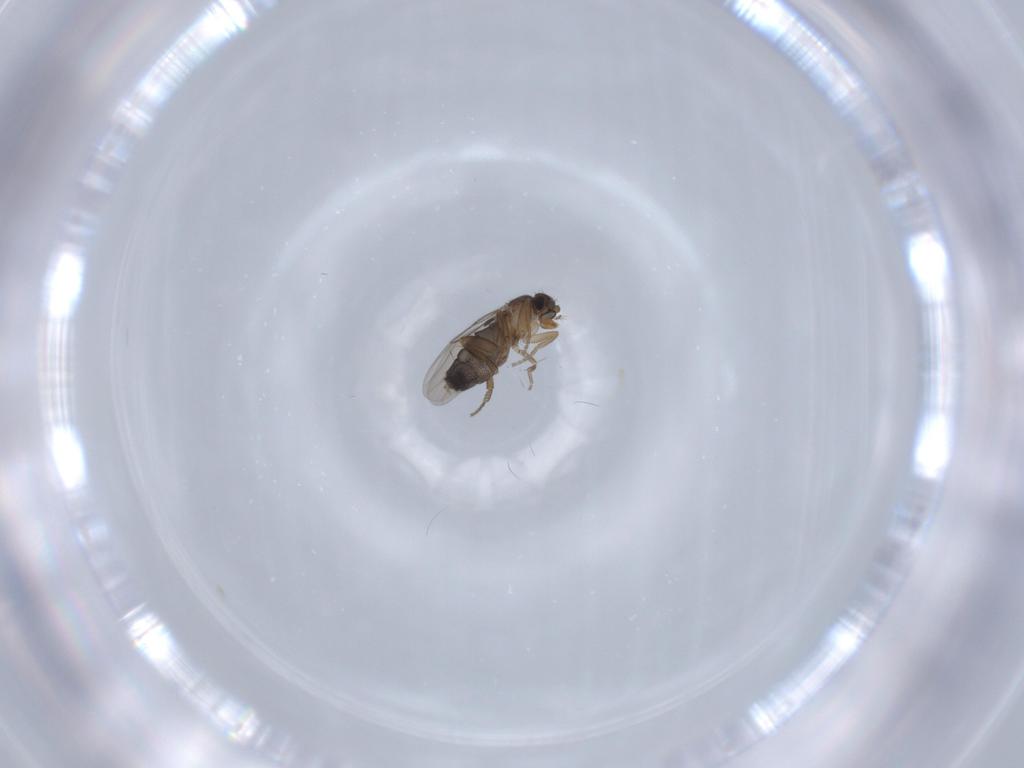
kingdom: Animalia
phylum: Arthropoda
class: Insecta
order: Diptera
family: Phoridae
